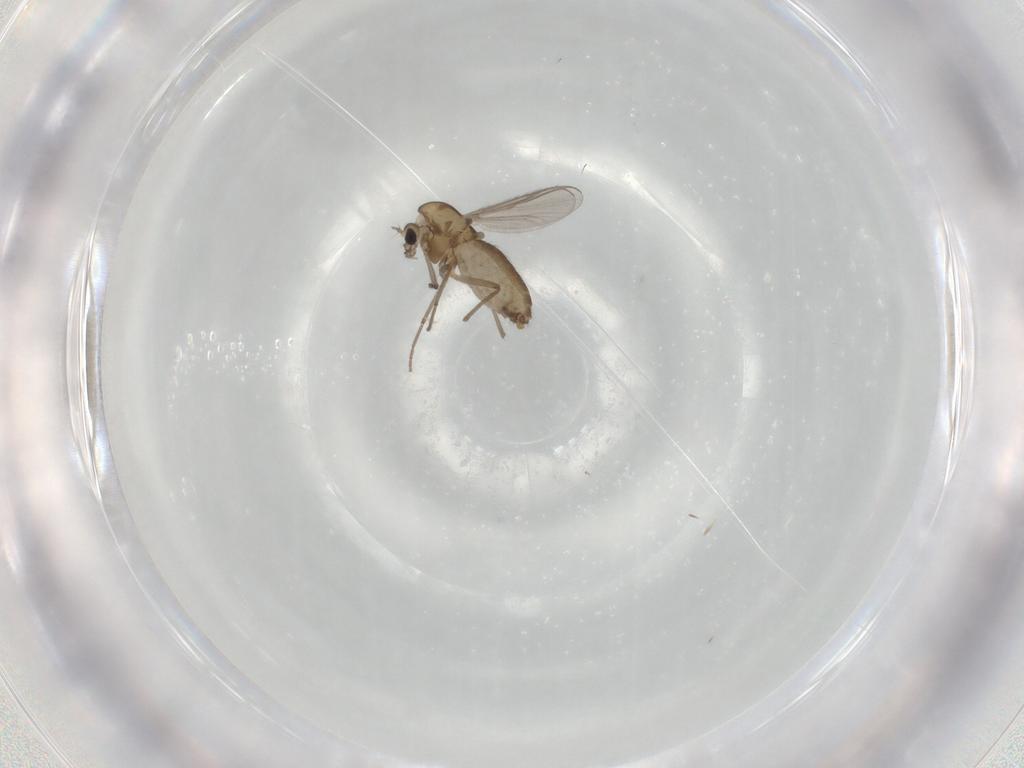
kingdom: Animalia
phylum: Arthropoda
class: Insecta
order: Diptera
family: Chironomidae
